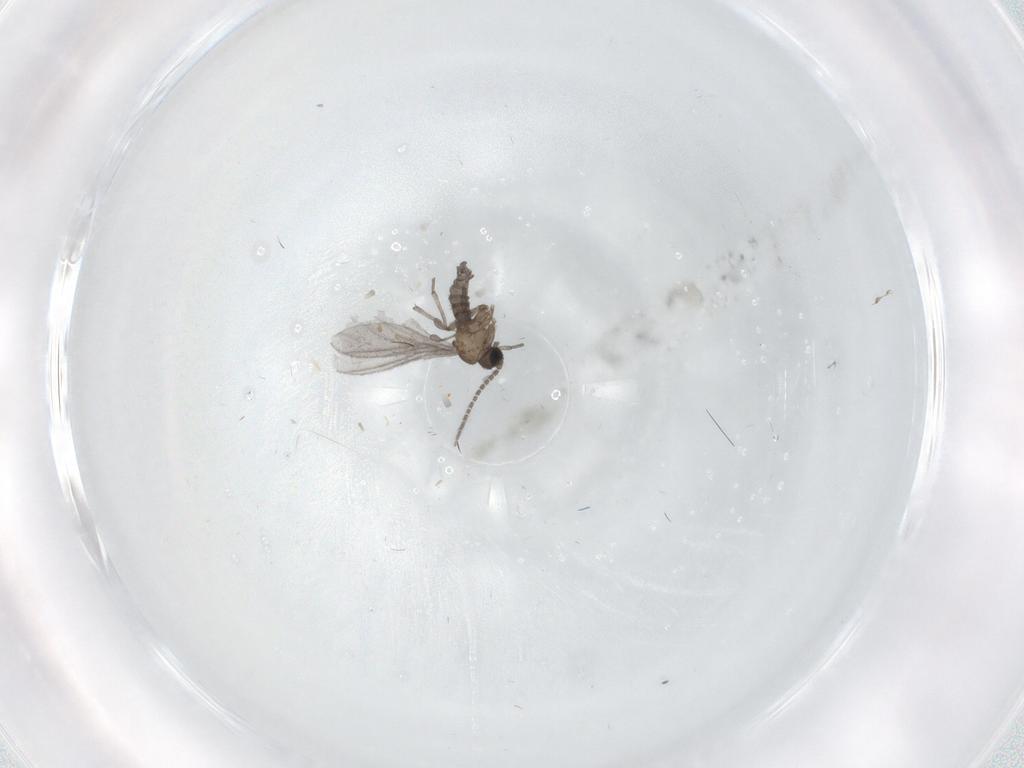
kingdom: Animalia
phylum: Arthropoda
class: Insecta
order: Diptera
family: Sciaridae
